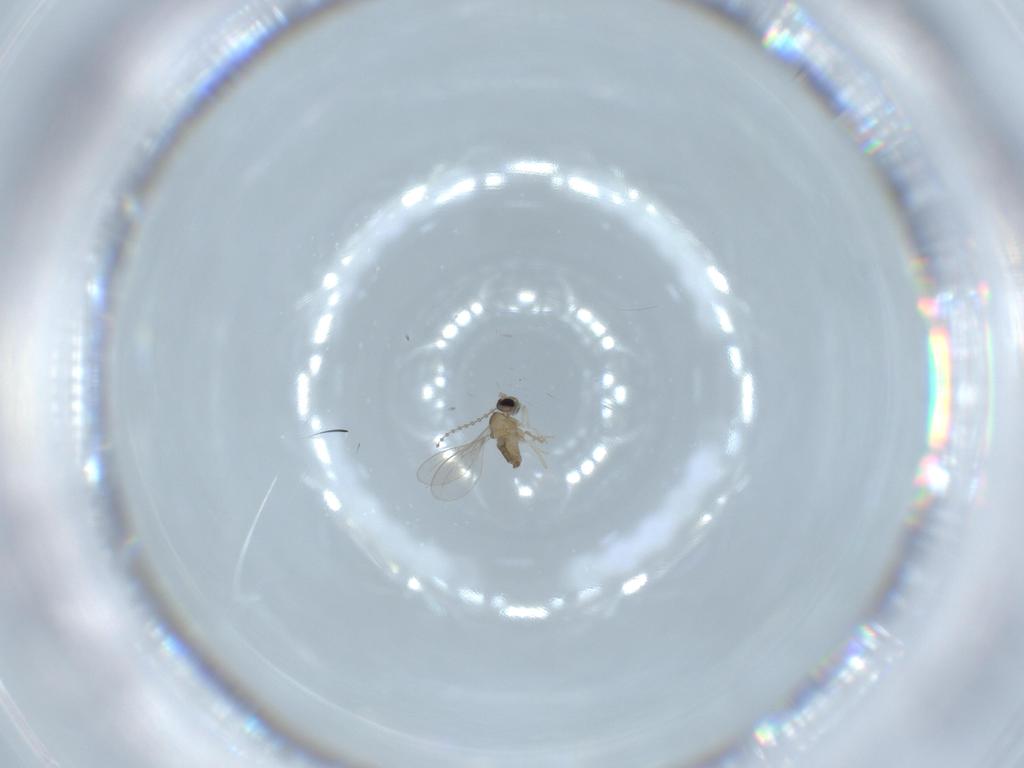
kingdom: Animalia
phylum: Arthropoda
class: Insecta
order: Diptera
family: Cecidomyiidae
